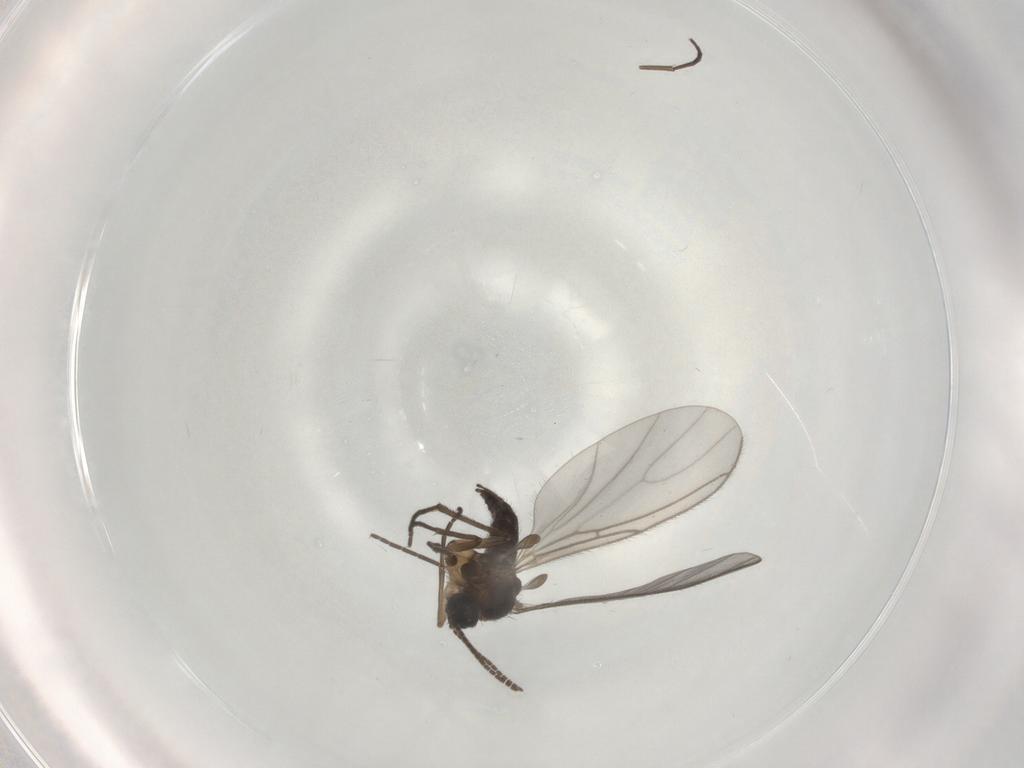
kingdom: Animalia
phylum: Arthropoda
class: Insecta
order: Diptera
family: Sciaridae
